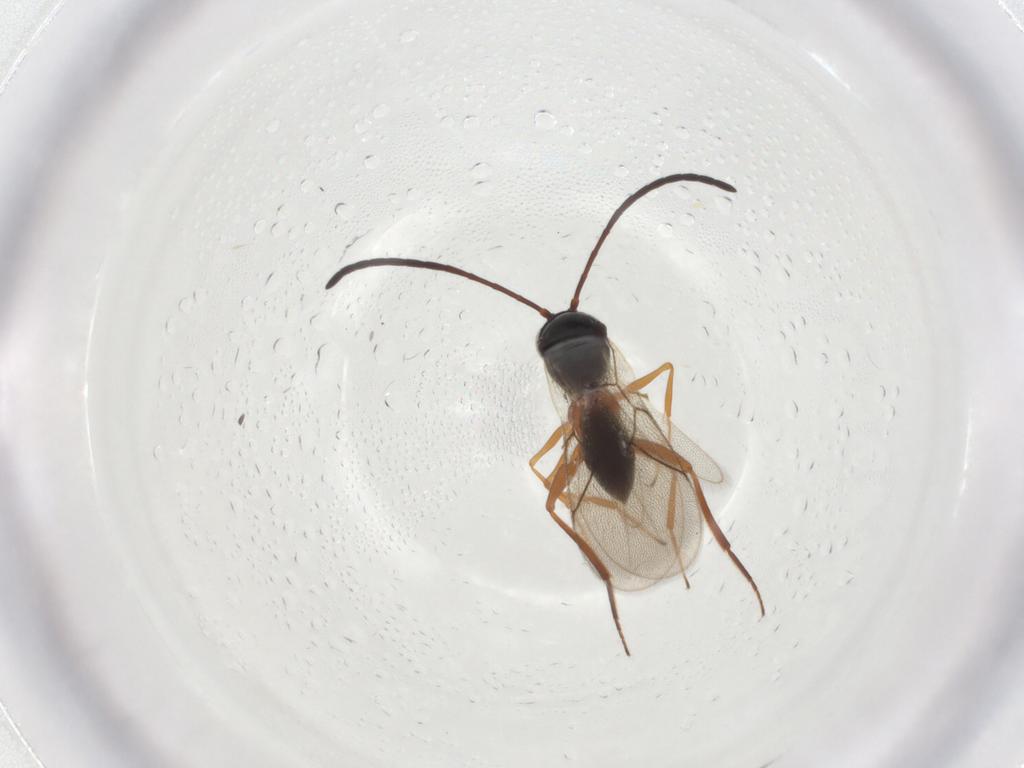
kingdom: Animalia
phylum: Arthropoda
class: Insecta
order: Hymenoptera
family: Figitidae
